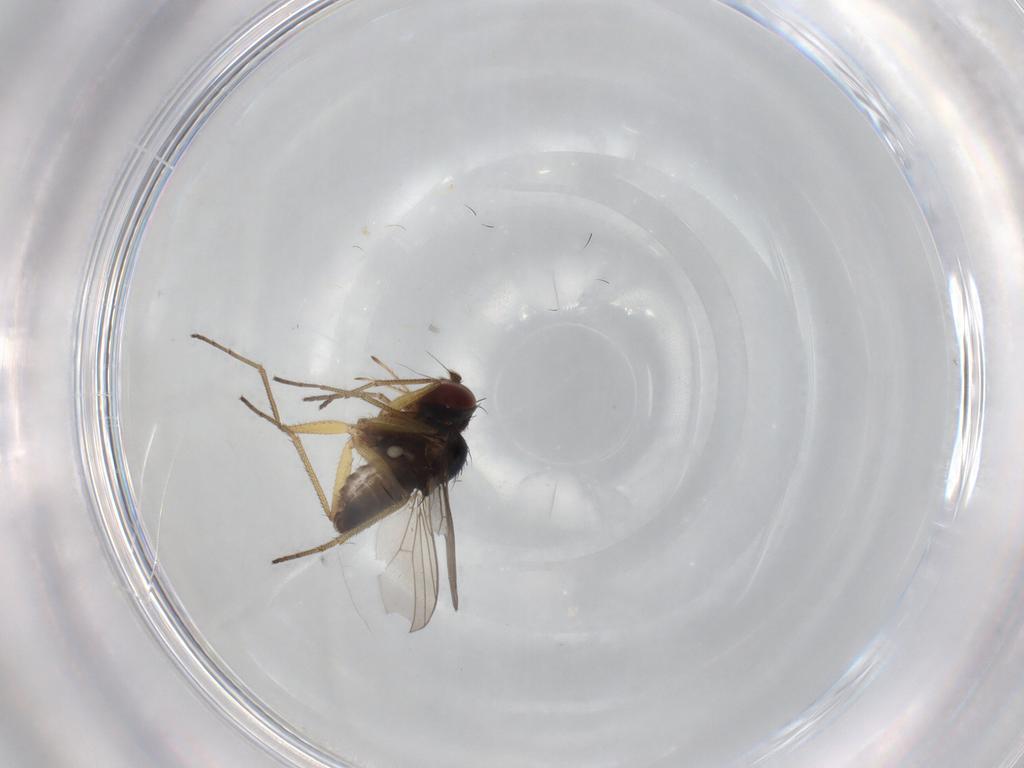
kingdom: Animalia
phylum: Arthropoda
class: Insecta
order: Diptera
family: Dolichopodidae
